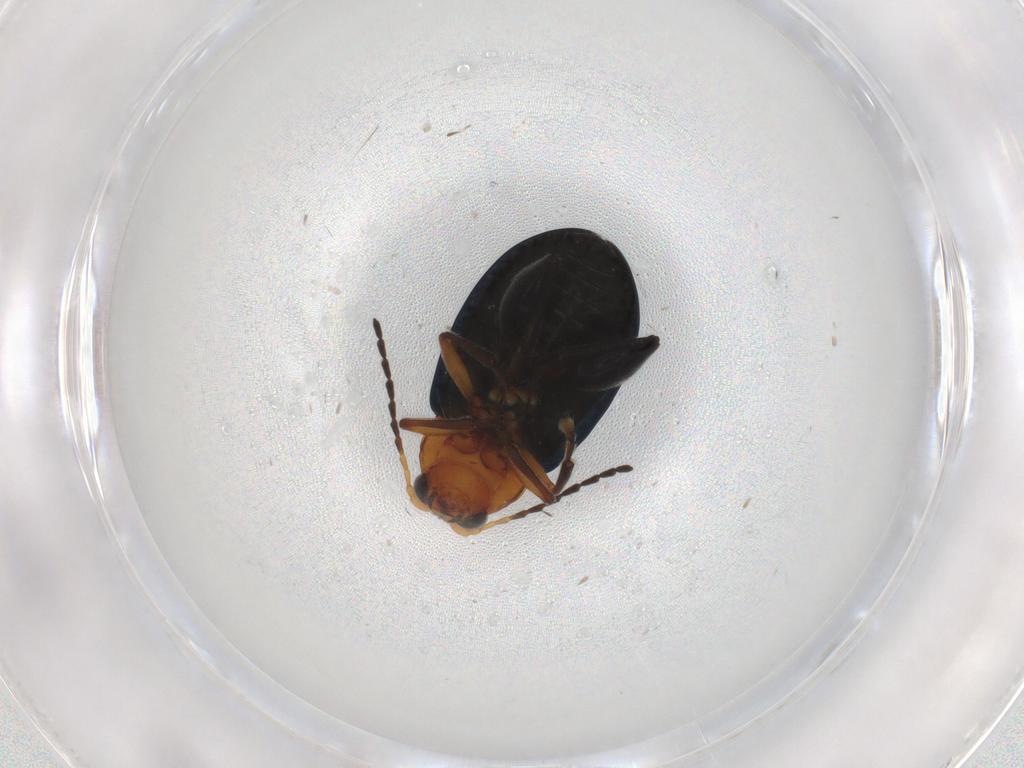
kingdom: Animalia
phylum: Arthropoda
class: Insecta
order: Coleoptera
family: Chrysomelidae
